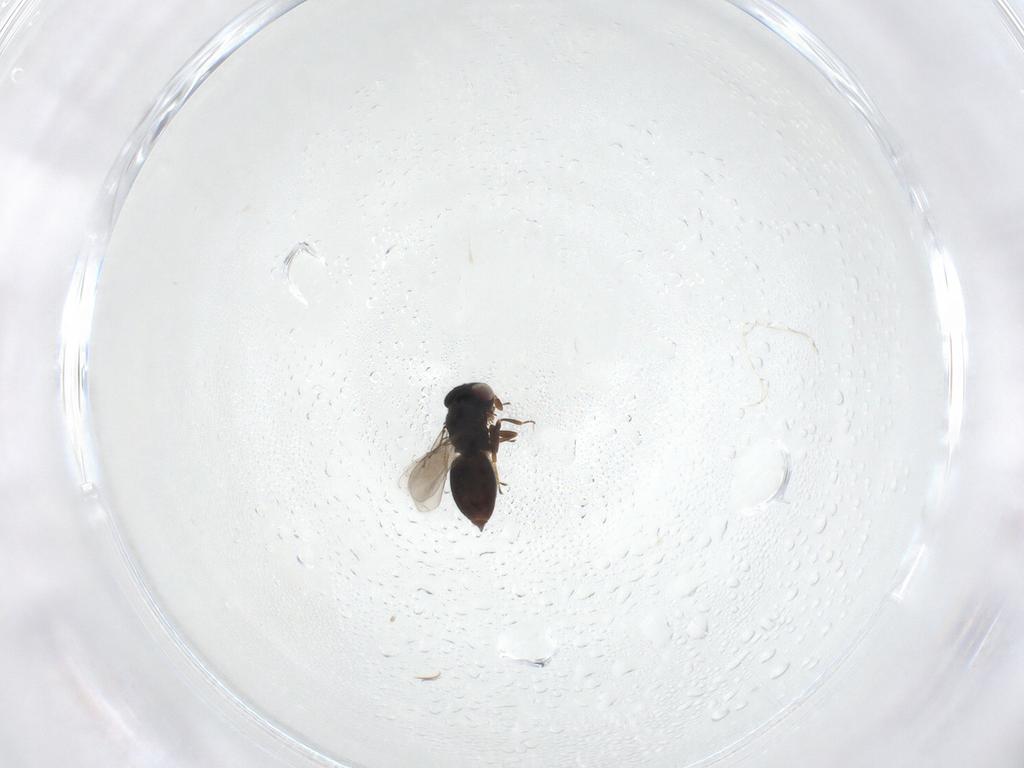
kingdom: Animalia
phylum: Arthropoda
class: Insecta
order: Hymenoptera
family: Eunotidae
